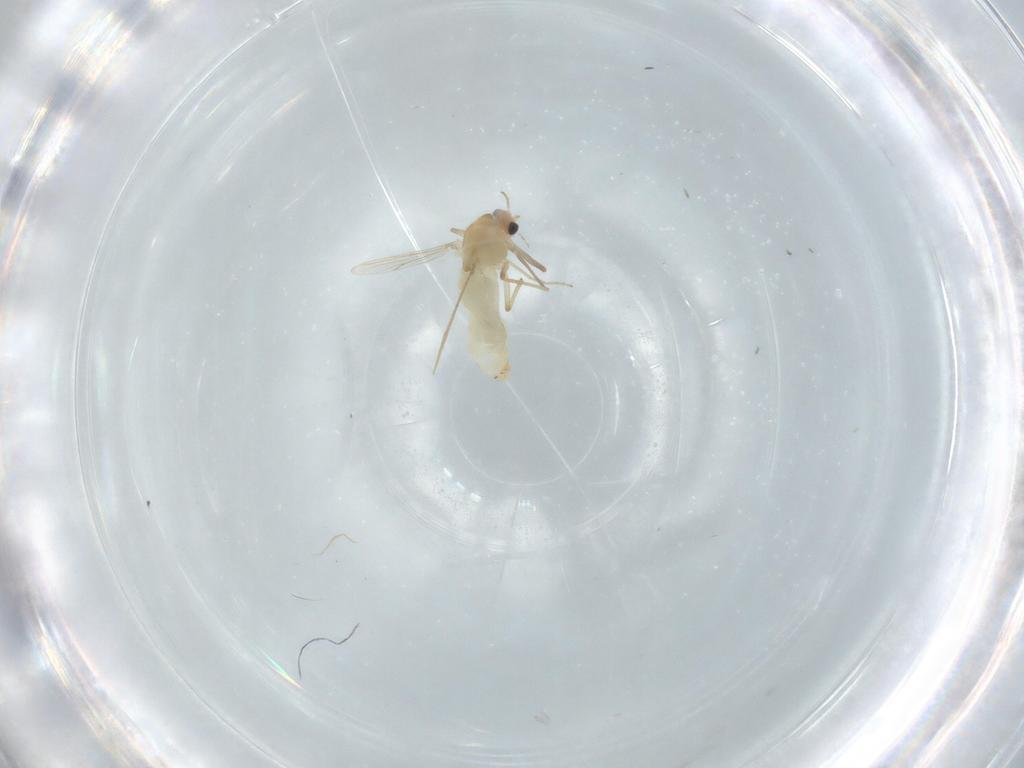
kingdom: Animalia
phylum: Arthropoda
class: Insecta
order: Diptera
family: Chironomidae
